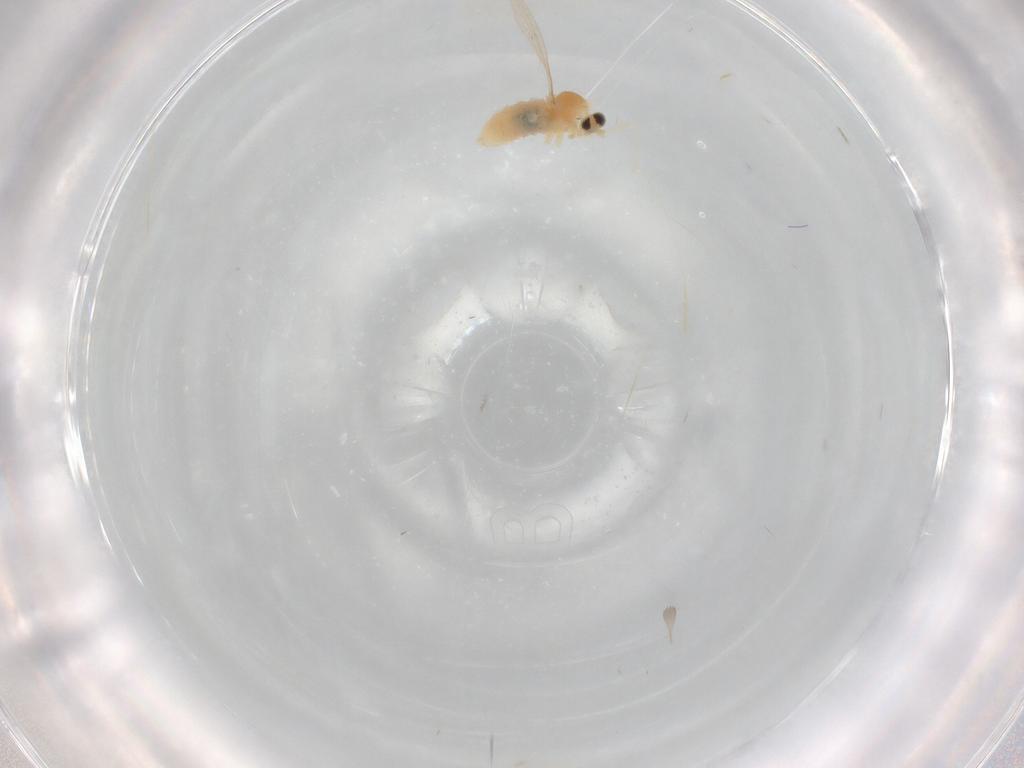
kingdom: Animalia
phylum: Arthropoda
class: Insecta
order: Diptera
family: Cecidomyiidae
